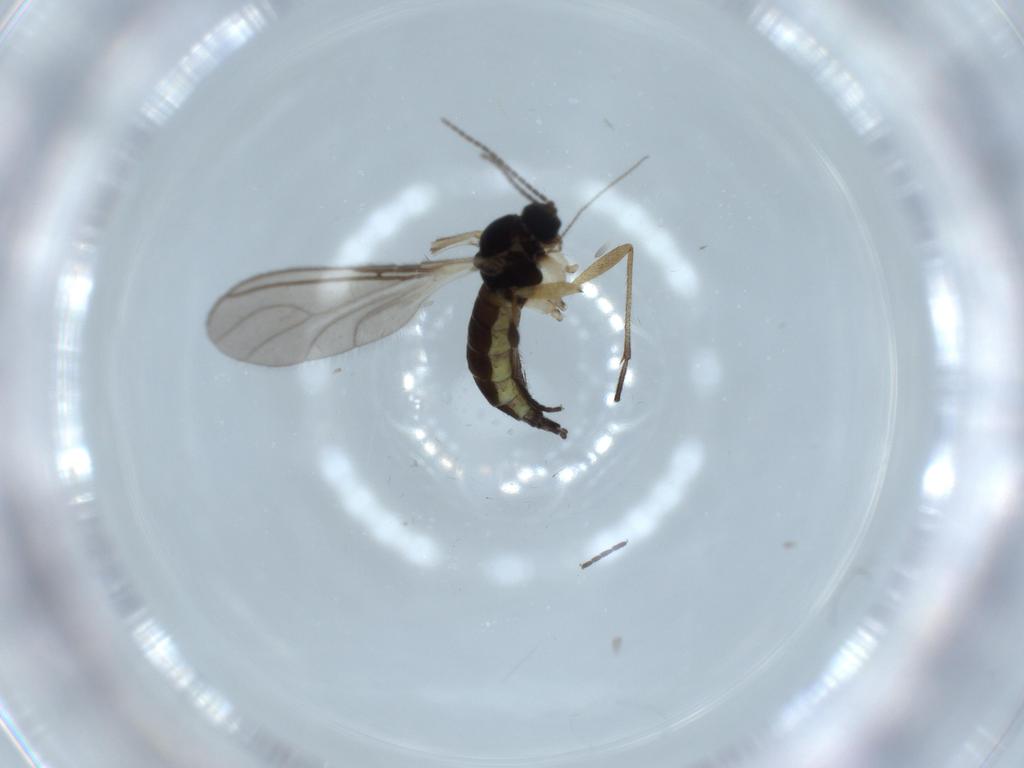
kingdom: Animalia
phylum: Arthropoda
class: Insecta
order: Diptera
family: Sciaridae
